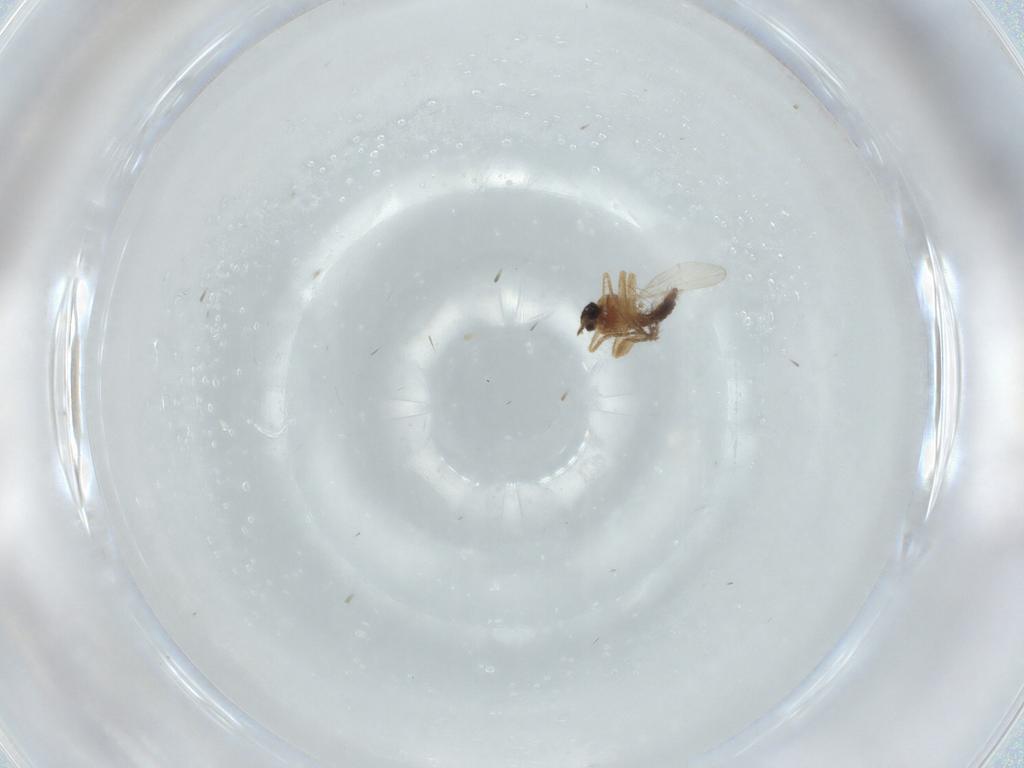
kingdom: Animalia
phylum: Arthropoda
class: Insecta
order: Diptera
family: Ceratopogonidae
